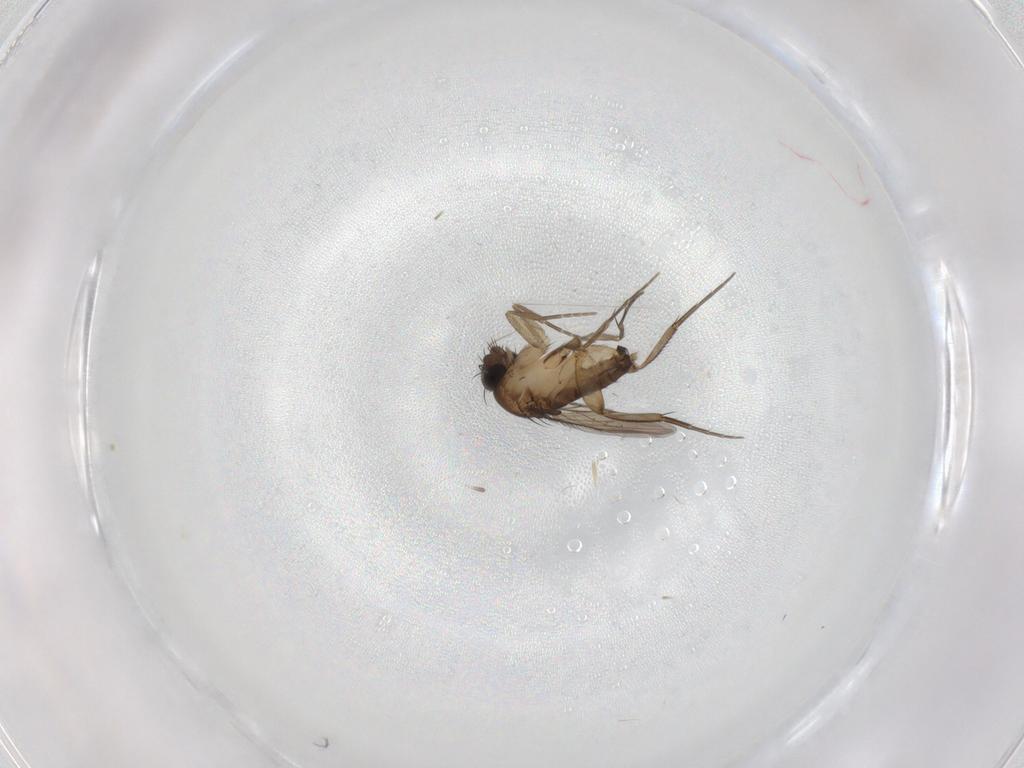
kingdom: Animalia
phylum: Arthropoda
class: Insecta
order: Diptera
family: Phoridae
